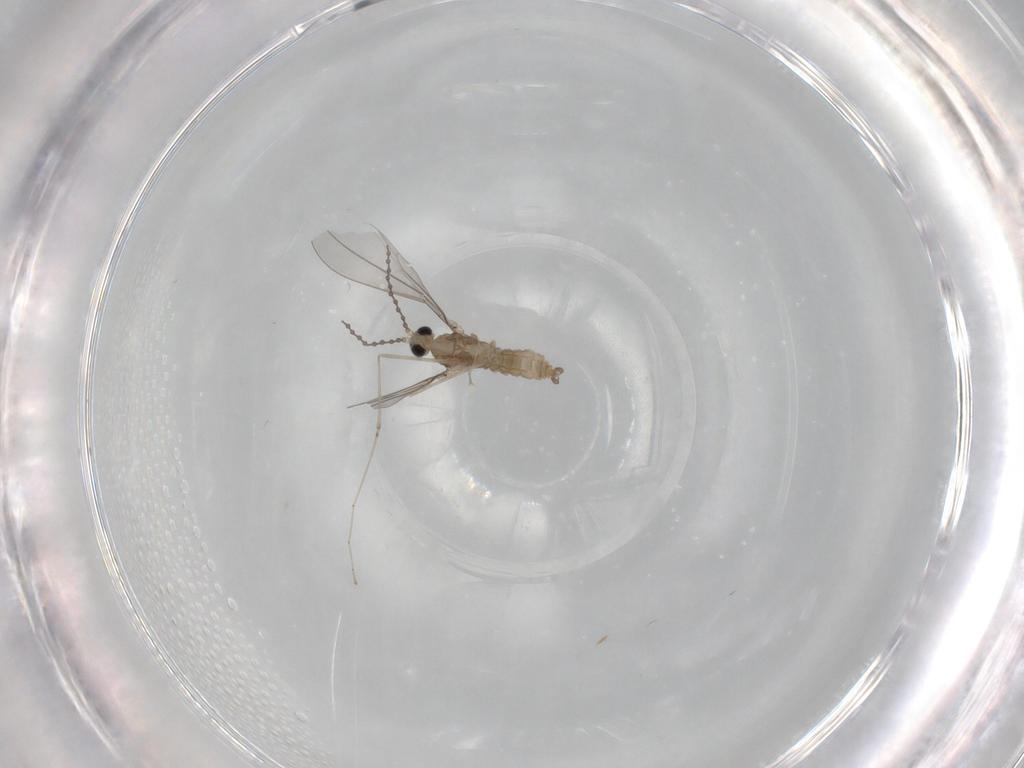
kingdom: Animalia
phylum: Arthropoda
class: Insecta
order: Diptera
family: Cecidomyiidae
